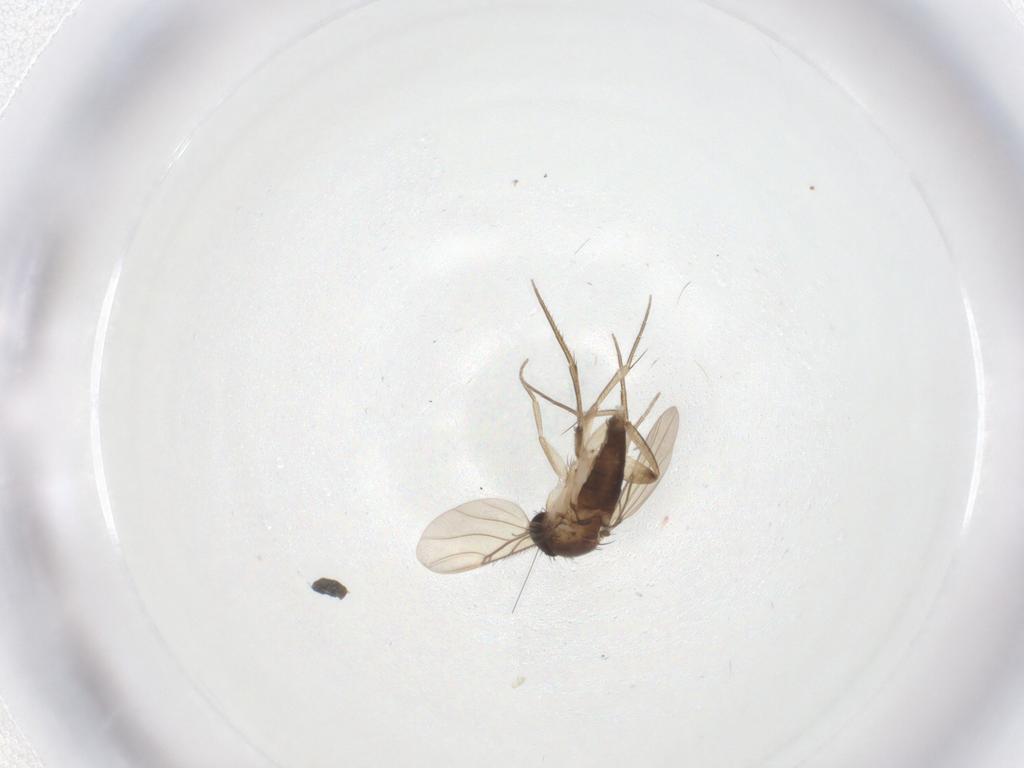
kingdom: Animalia
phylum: Arthropoda
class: Insecta
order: Diptera
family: Phoridae
